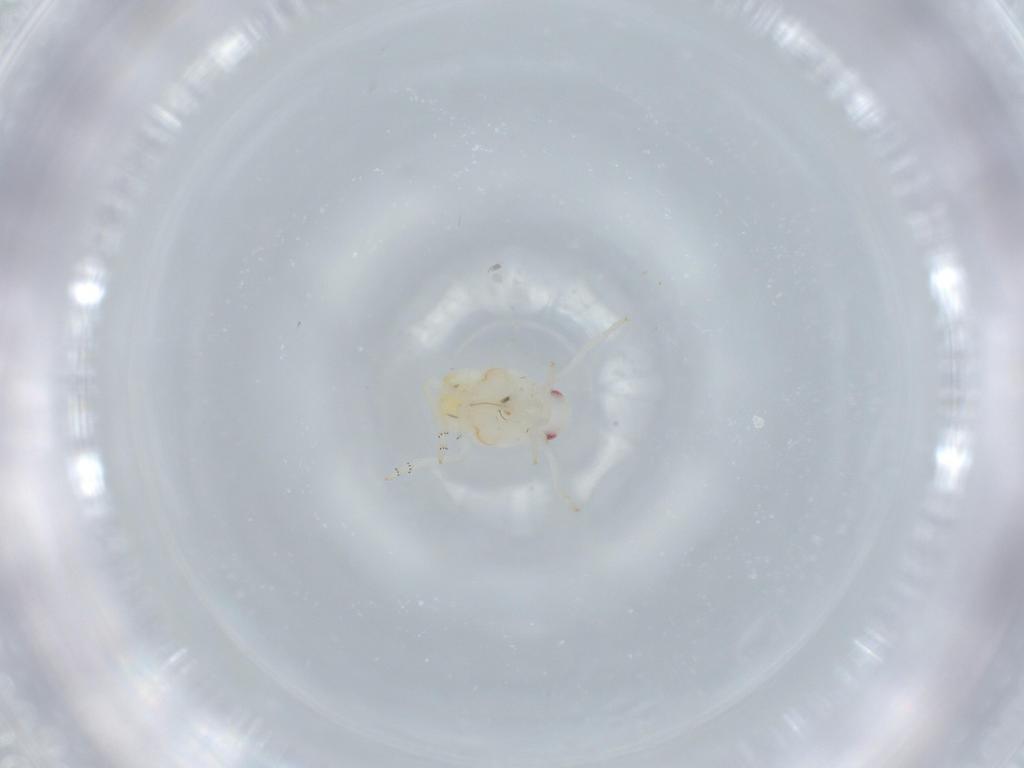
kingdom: Animalia
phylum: Arthropoda
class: Insecta
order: Hemiptera
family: Flatidae
